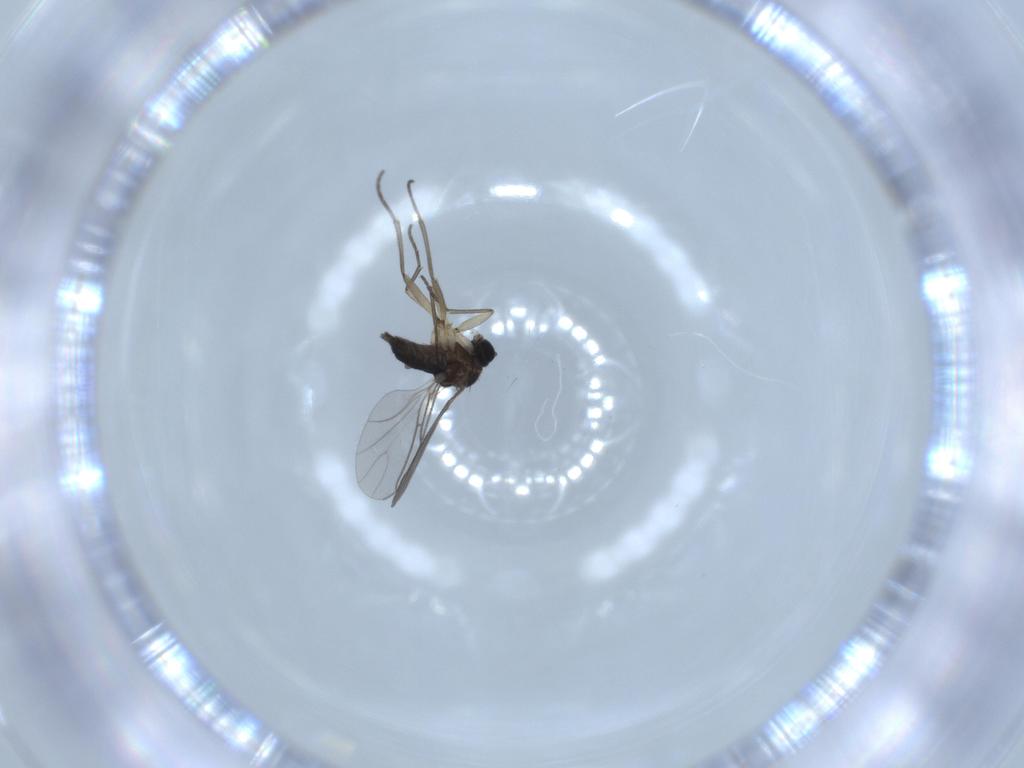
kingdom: Animalia
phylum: Arthropoda
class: Insecta
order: Diptera
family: Sciaridae
